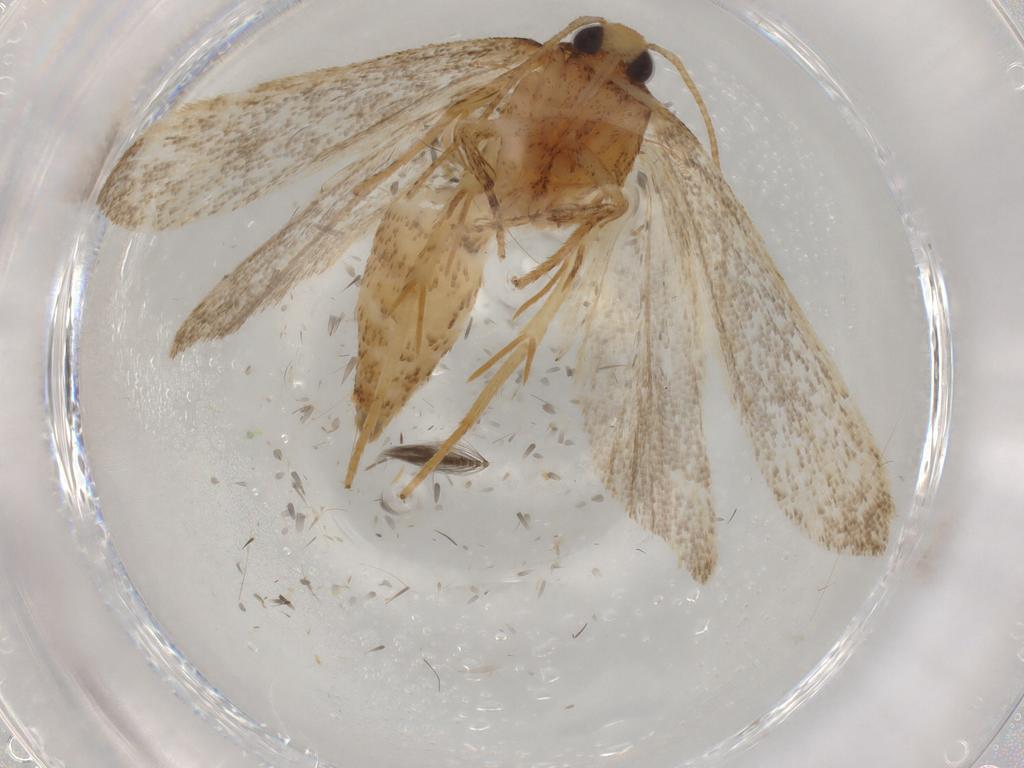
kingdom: Animalia
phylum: Arthropoda
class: Insecta
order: Lepidoptera
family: Autostichidae
